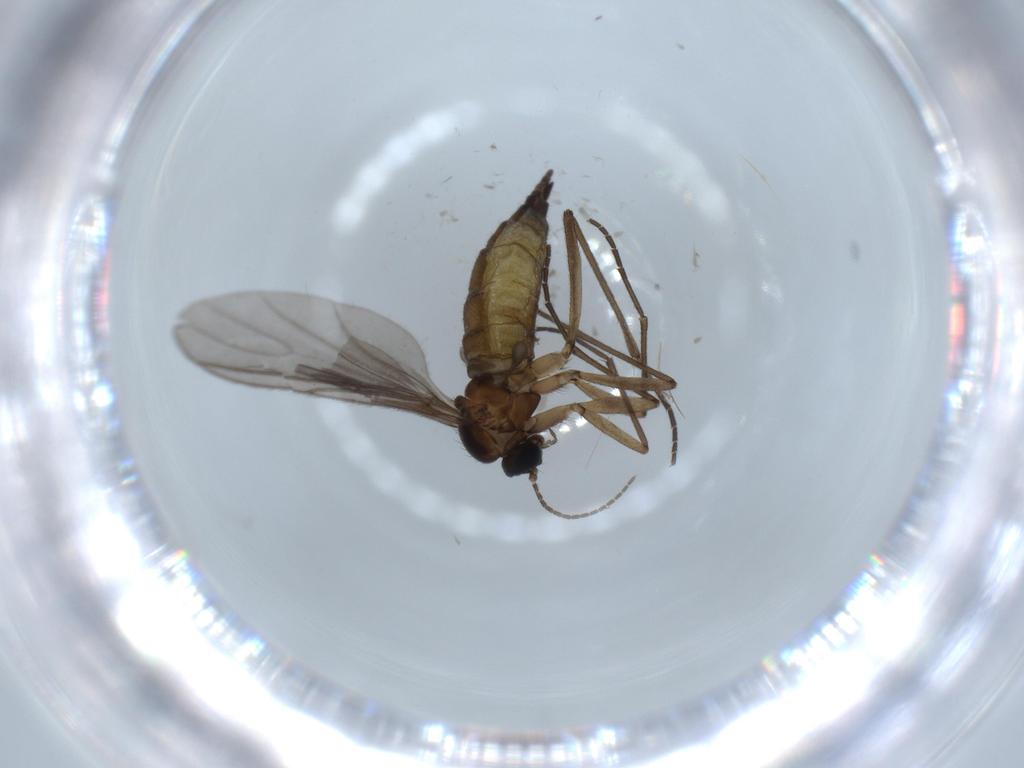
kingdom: Animalia
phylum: Arthropoda
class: Insecta
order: Diptera
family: Sciaridae
